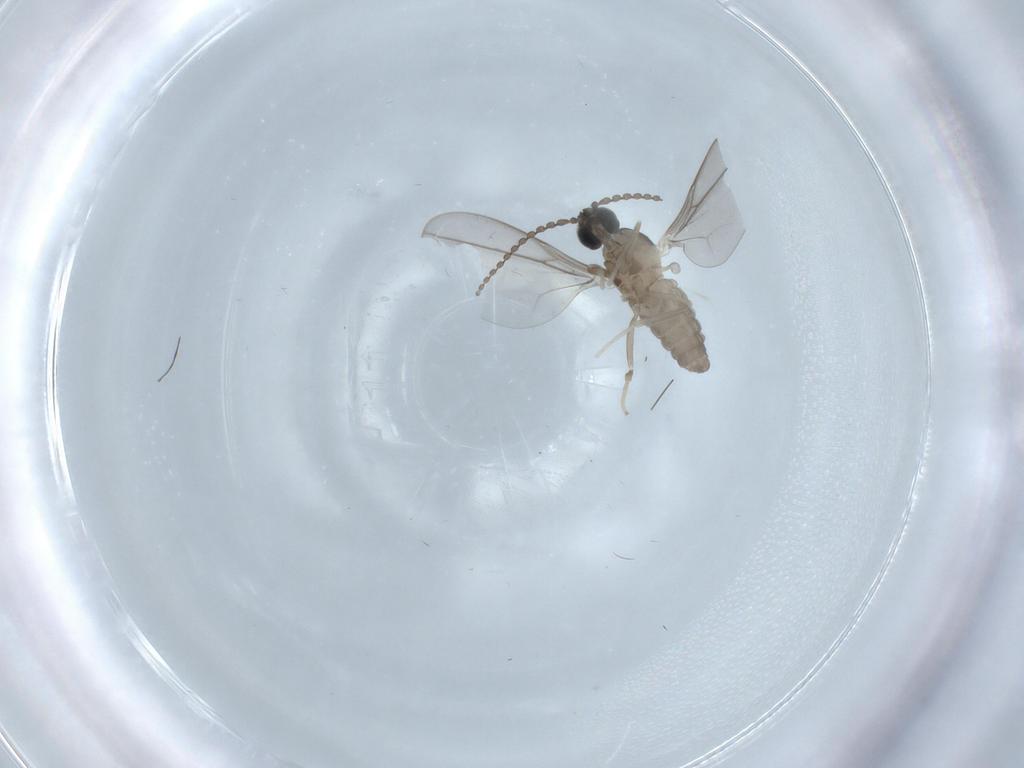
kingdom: Animalia
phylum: Arthropoda
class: Insecta
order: Diptera
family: Cecidomyiidae
